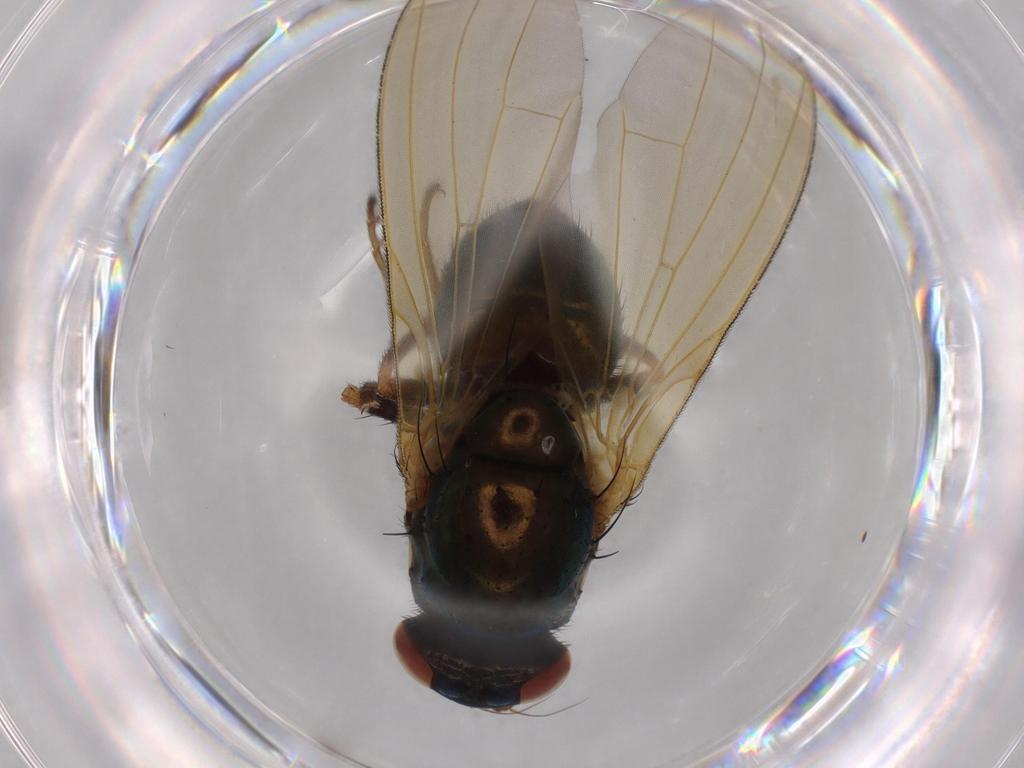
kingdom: Animalia
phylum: Arthropoda
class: Insecta
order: Diptera
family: Lauxaniidae
